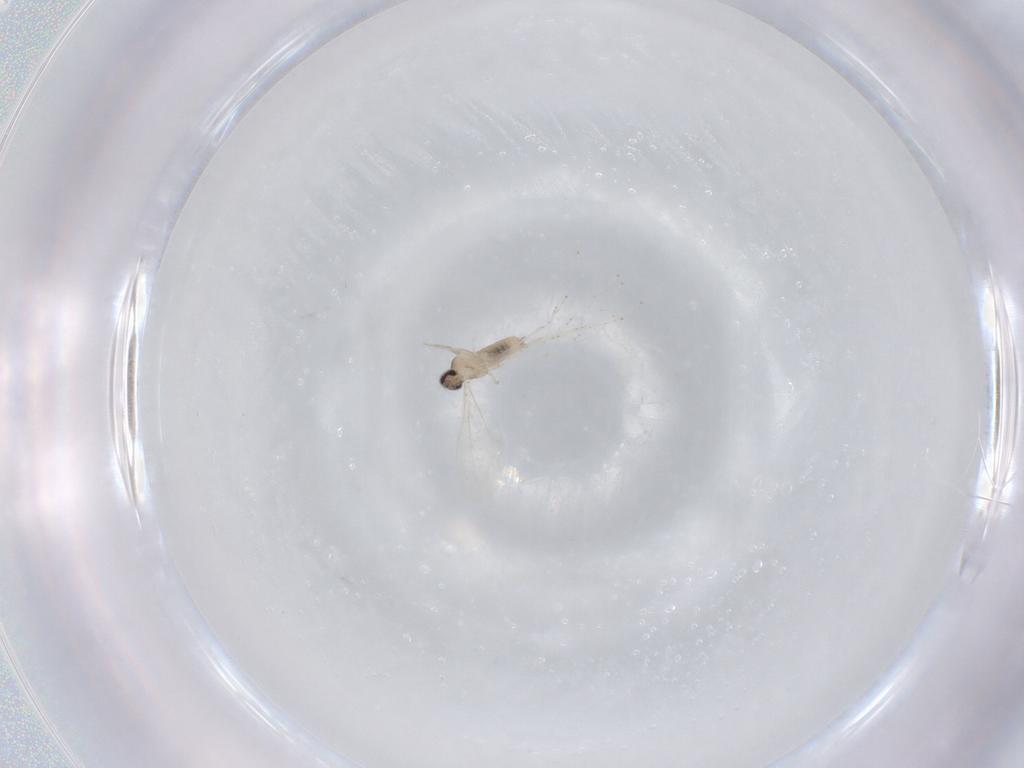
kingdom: Animalia
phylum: Arthropoda
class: Insecta
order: Diptera
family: Cecidomyiidae
